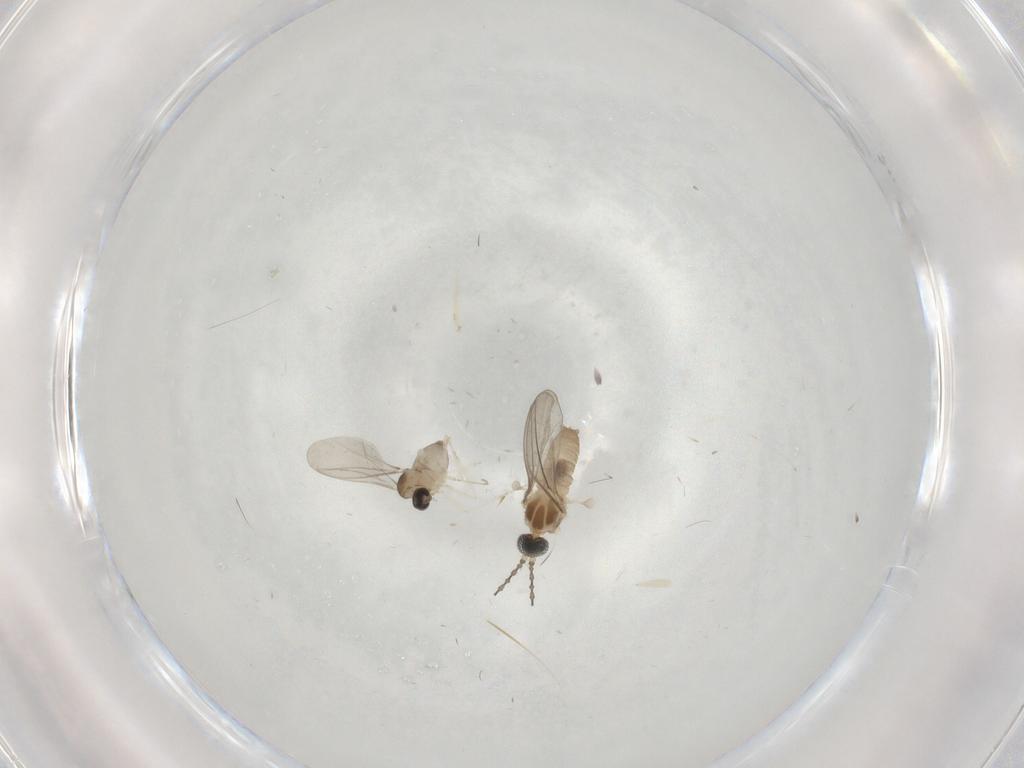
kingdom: Animalia
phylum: Arthropoda
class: Insecta
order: Diptera
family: Cecidomyiidae
